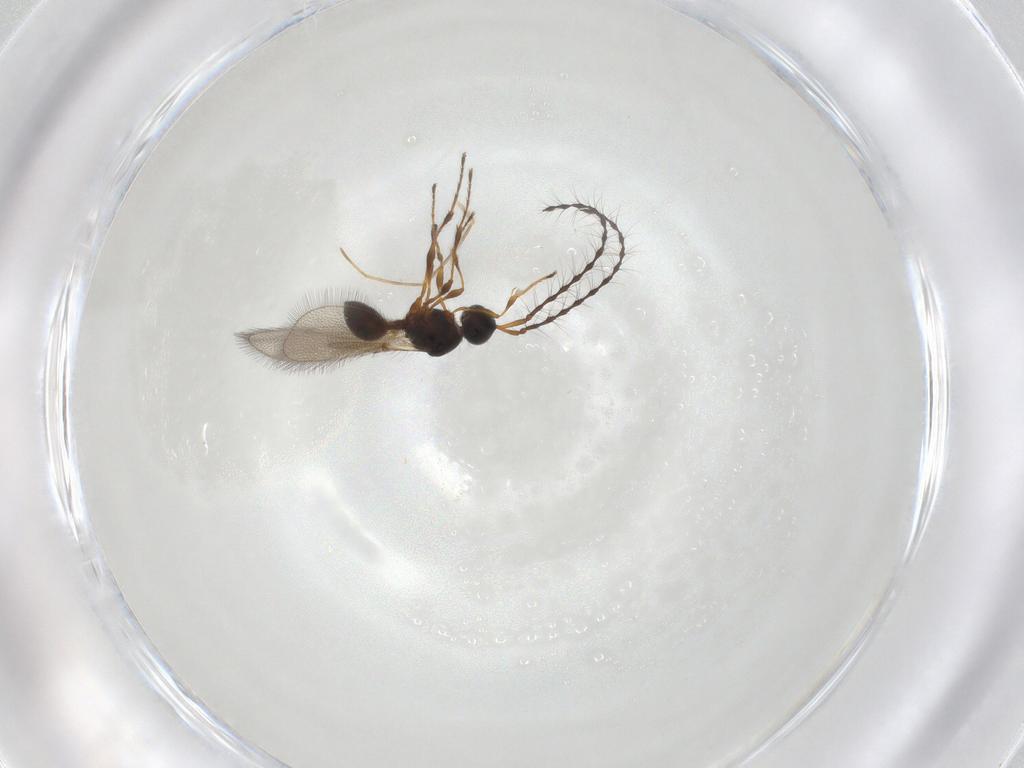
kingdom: Animalia
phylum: Arthropoda
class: Insecta
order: Hymenoptera
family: Diapriidae
